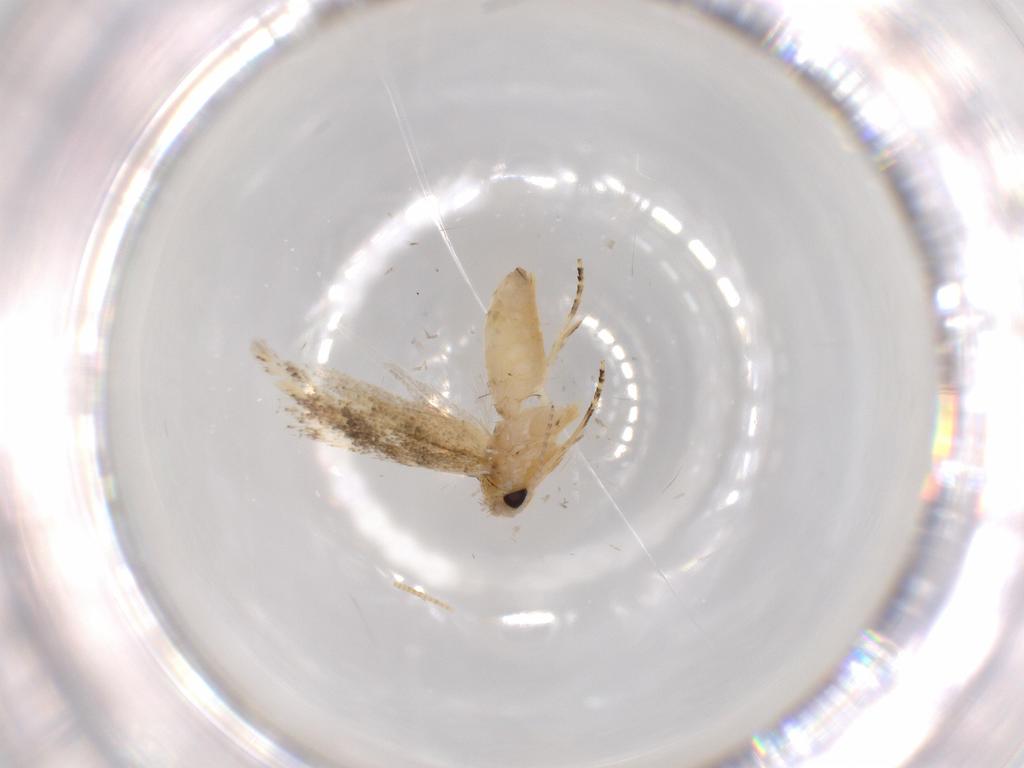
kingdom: Animalia
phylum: Arthropoda
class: Insecta
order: Lepidoptera
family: Bucculatricidae
